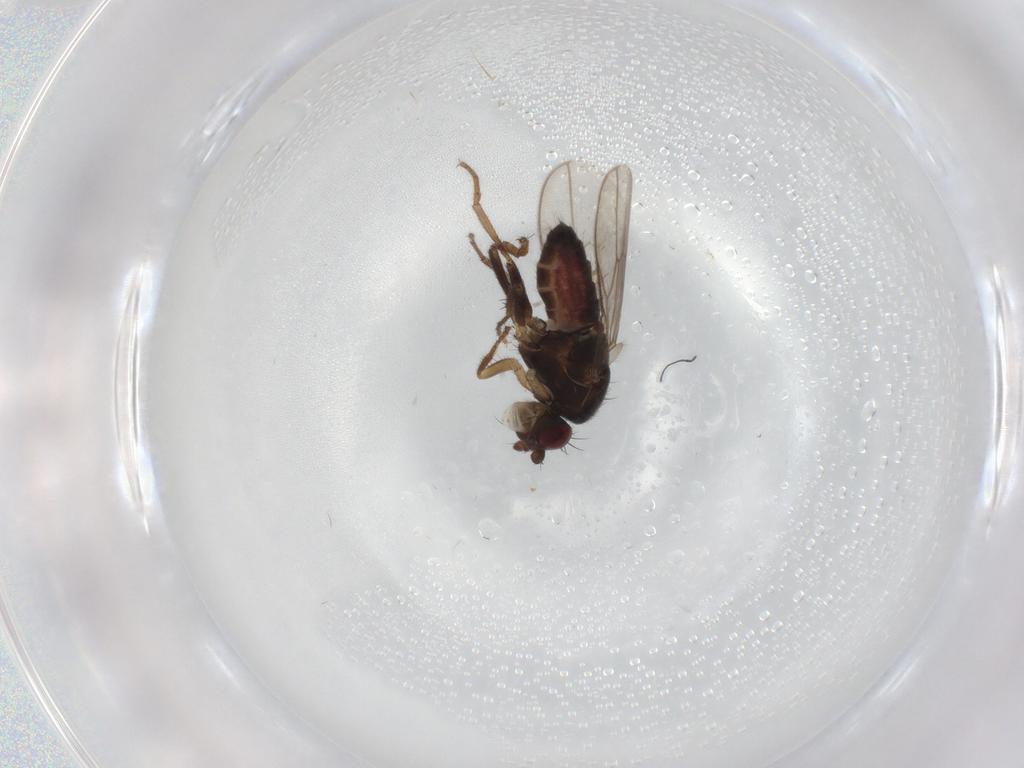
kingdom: Animalia
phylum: Arthropoda
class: Insecta
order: Diptera
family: Sphaeroceridae
